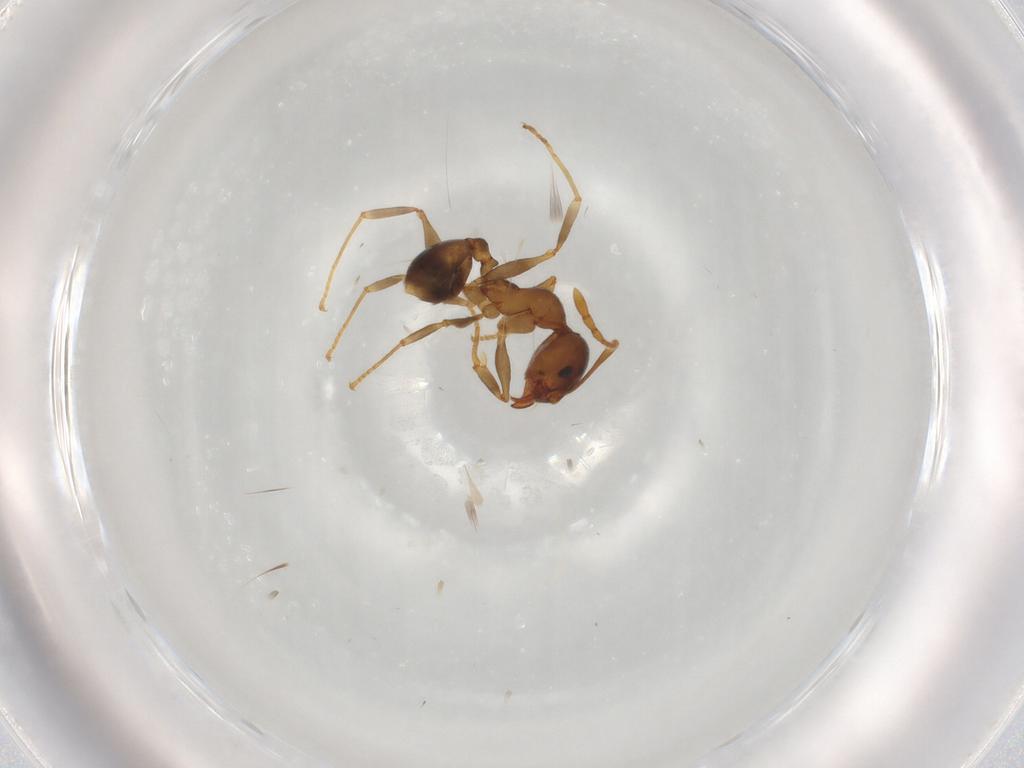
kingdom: Animalia
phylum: Arthropoda
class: Insecta
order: Hymenoptera
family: Formicidae
